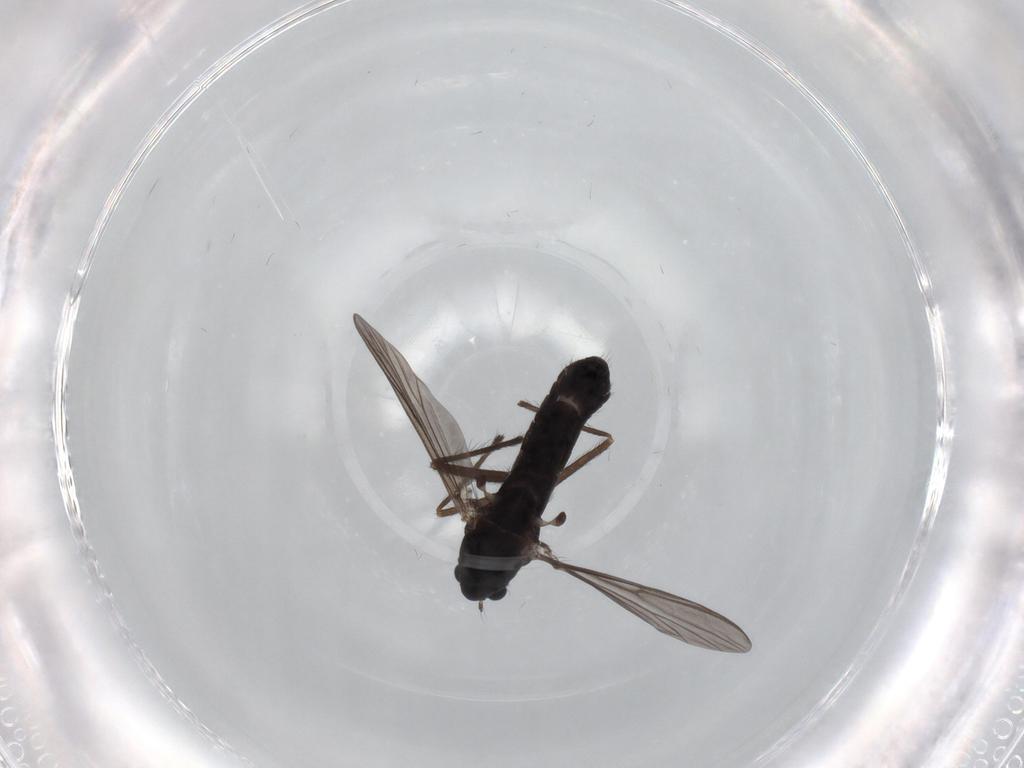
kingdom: Animalia
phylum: Arthropoda
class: Insecta
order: Diptera
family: Chironomidae
